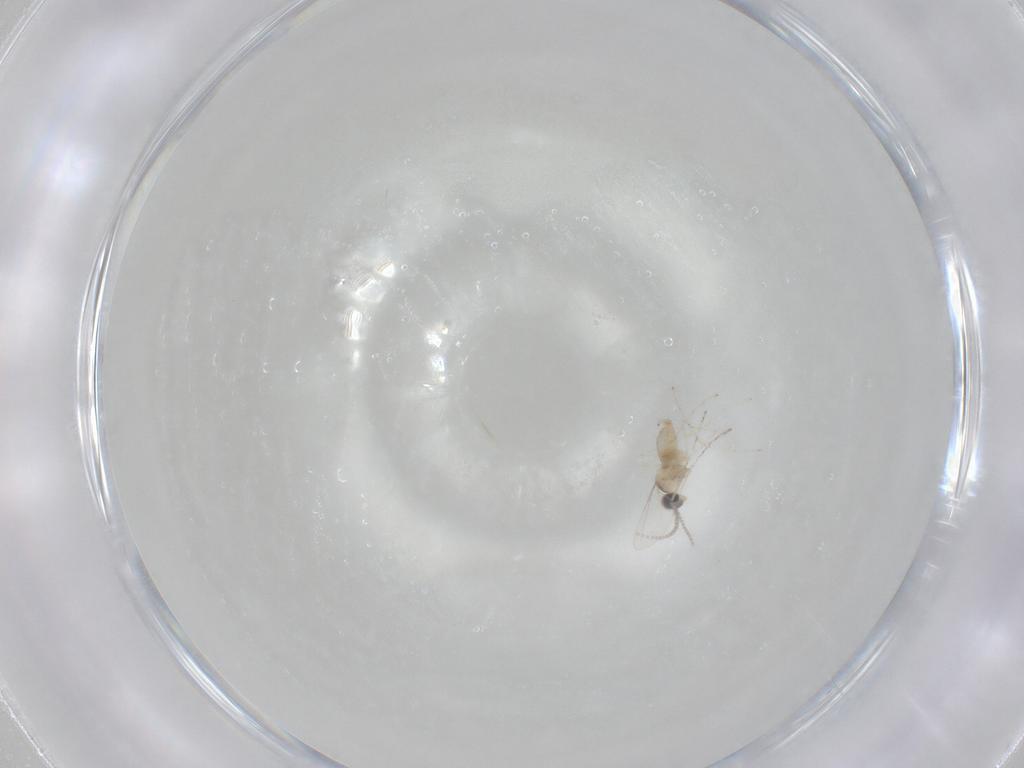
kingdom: Animalia
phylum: Arthropoda
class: Insecta
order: Diptera
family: Cecidomyiidae
